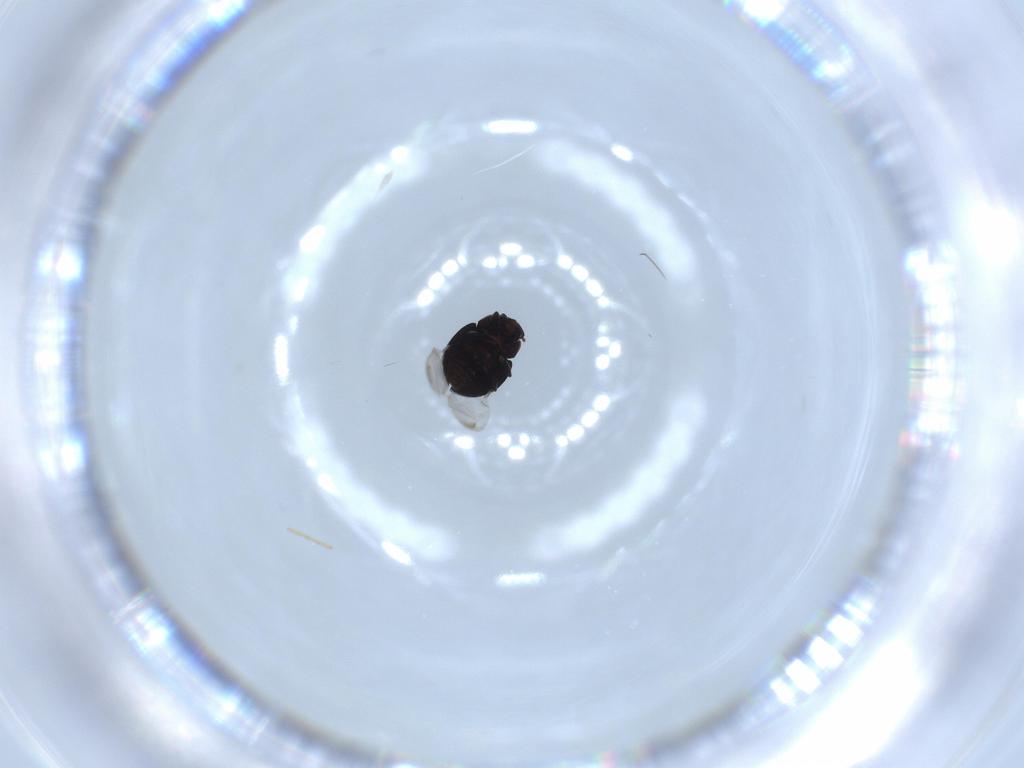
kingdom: Animalia
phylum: Arthropoda
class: Insecta
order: Coleoptera
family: Coccinellidae
